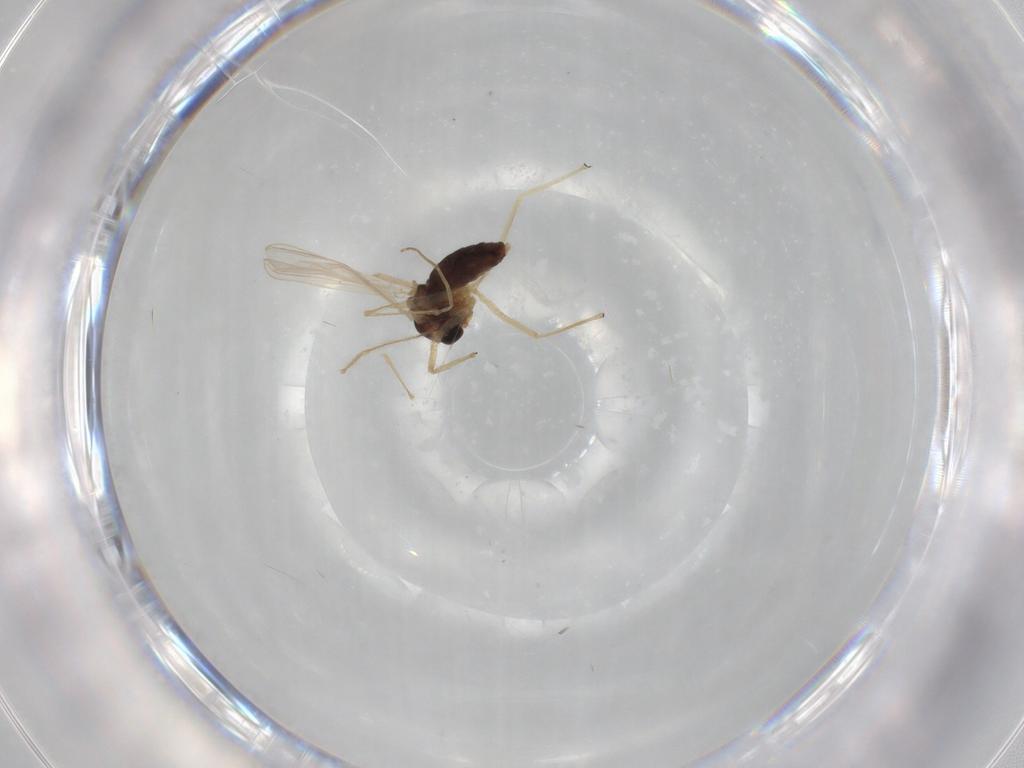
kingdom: Animalia
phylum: Arthropoda
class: Insecta
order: Diptera
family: Chironomidae
